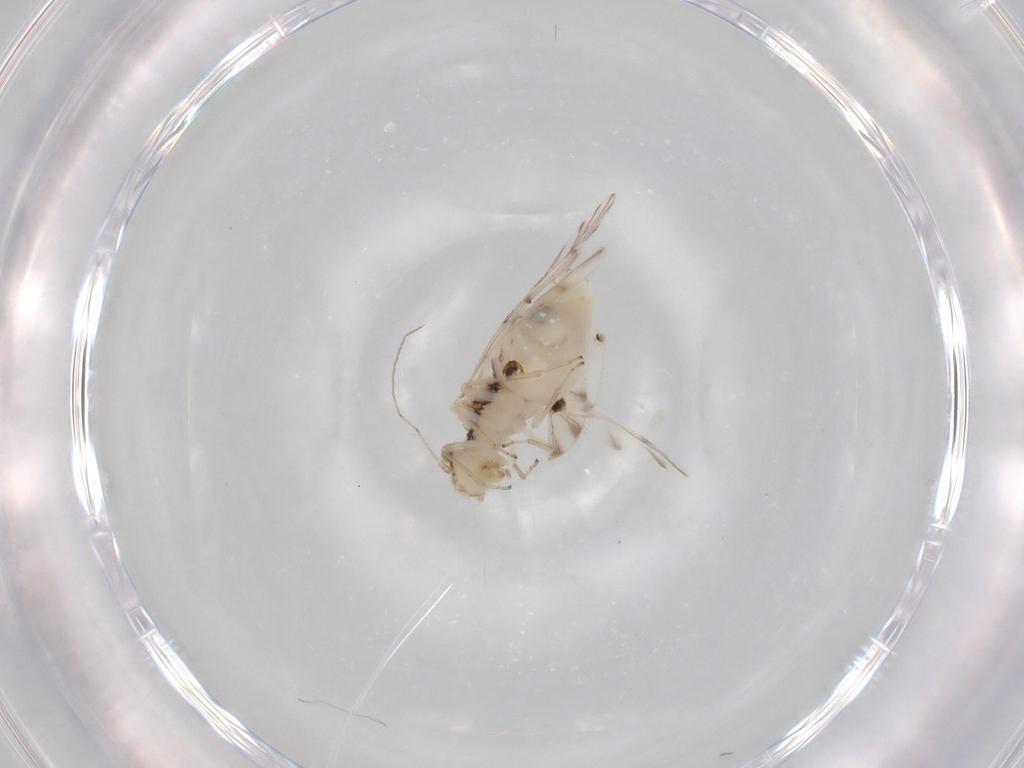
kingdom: Animalia
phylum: Arthropoda
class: Insecta
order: Psocodea
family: Ectopsocidae
